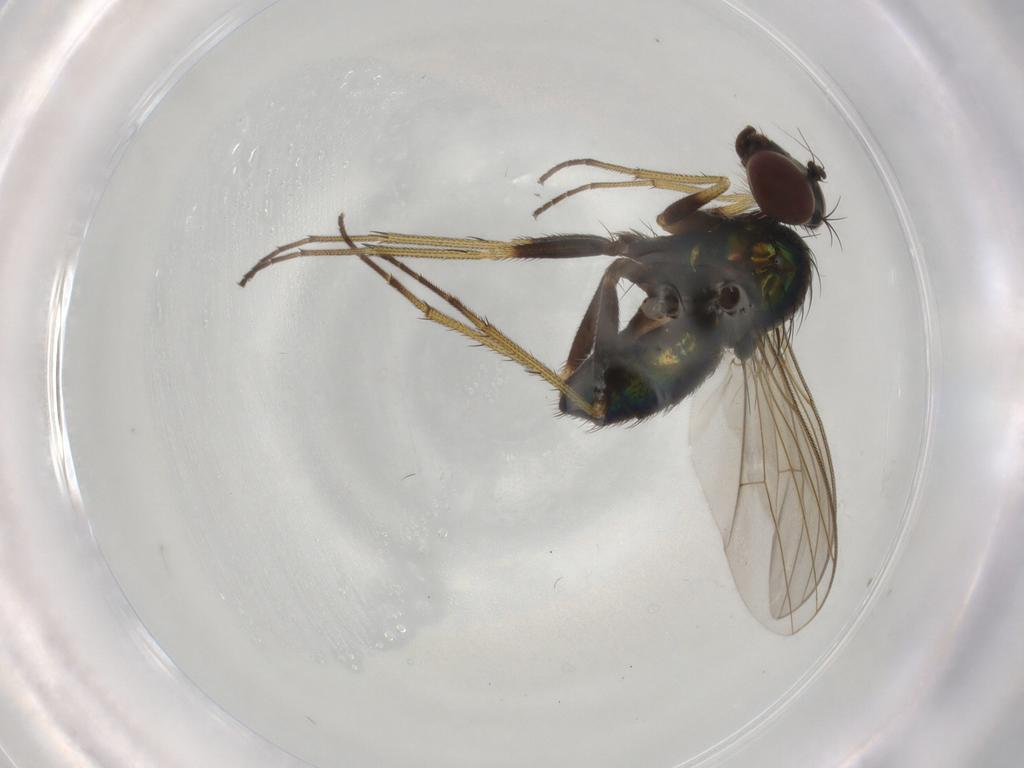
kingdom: Animalia
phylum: Arthropoda
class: Insecta
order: Diptera
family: Dolichopodidae
